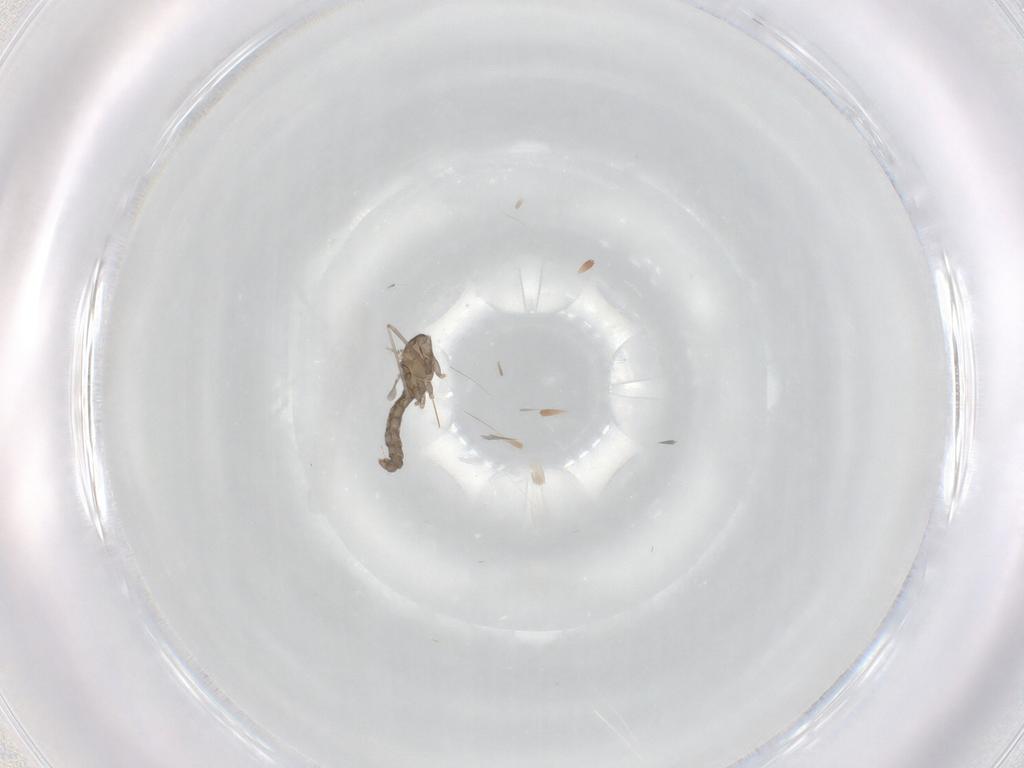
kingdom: Animalia
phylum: Arthropoda
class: Insecta
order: Diptera
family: Cecidomyiidae
